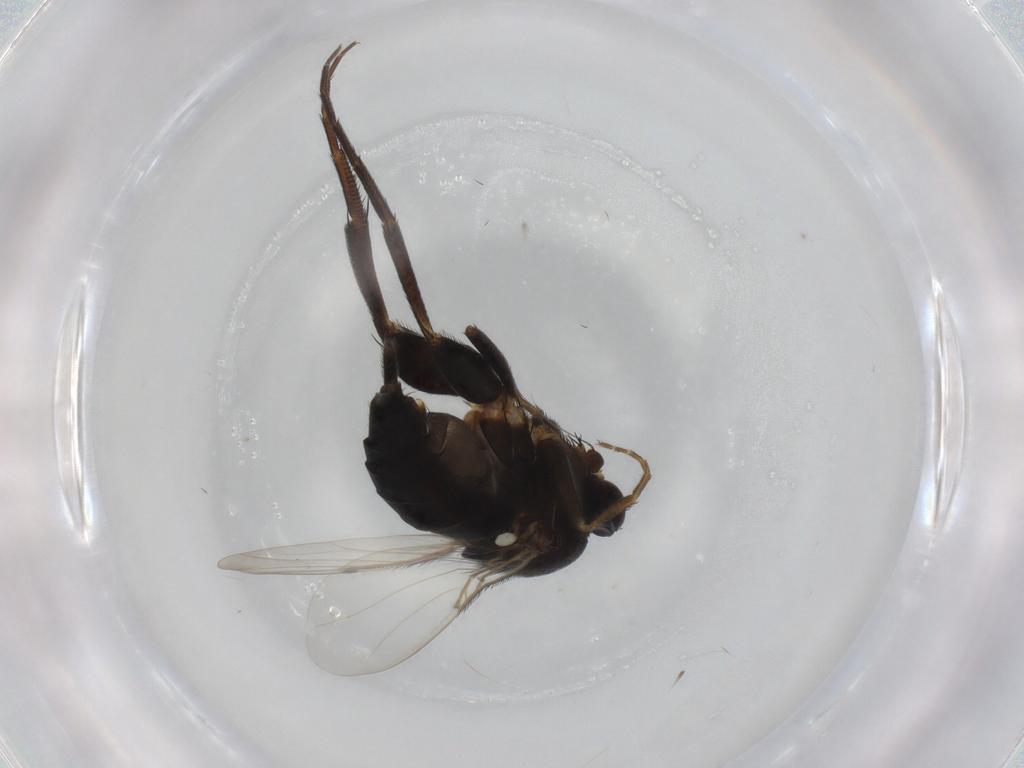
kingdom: Animalia
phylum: Arthropoda
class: Insecta
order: Diptera
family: Phoridae
